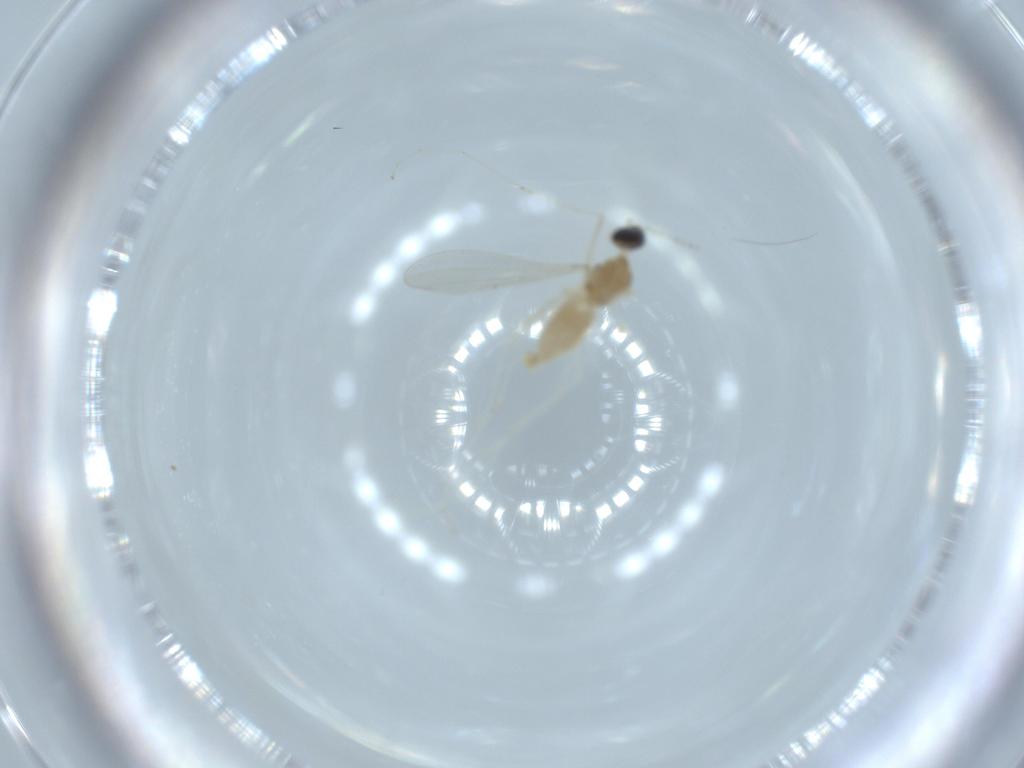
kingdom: Animalia
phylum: Arthropoda
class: Insecta
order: Diptera
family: Cecidomyiidae
